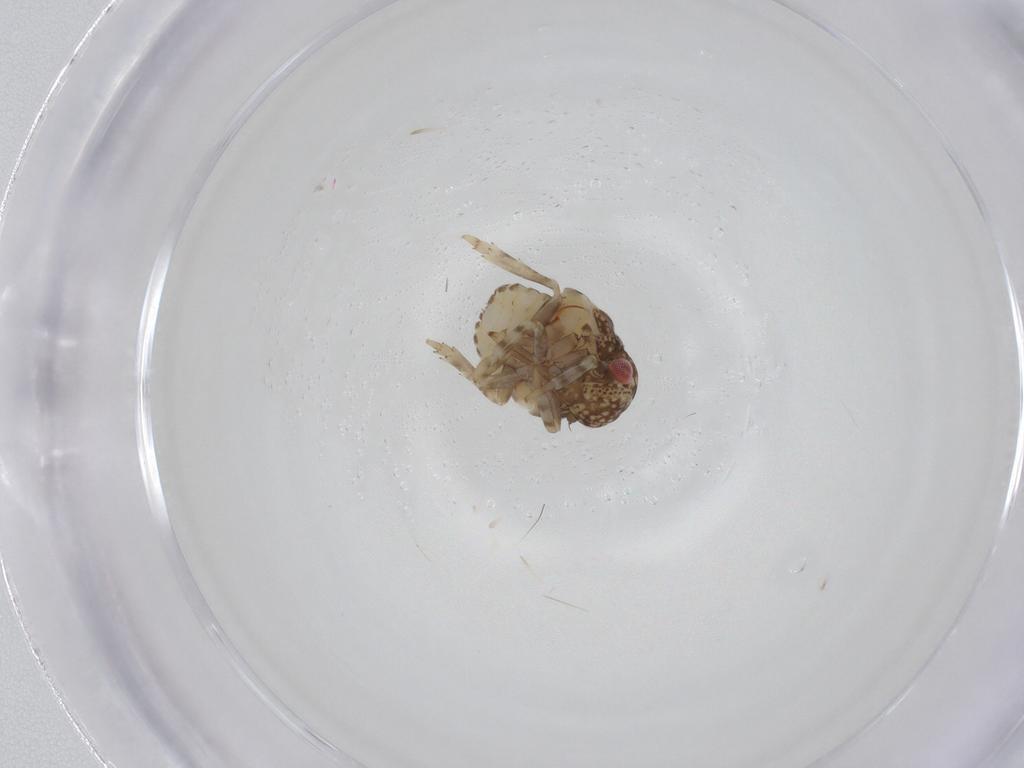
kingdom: Animalia
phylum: Arthropoda
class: Insecta
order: Hemiptera
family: Acanaloniidae
